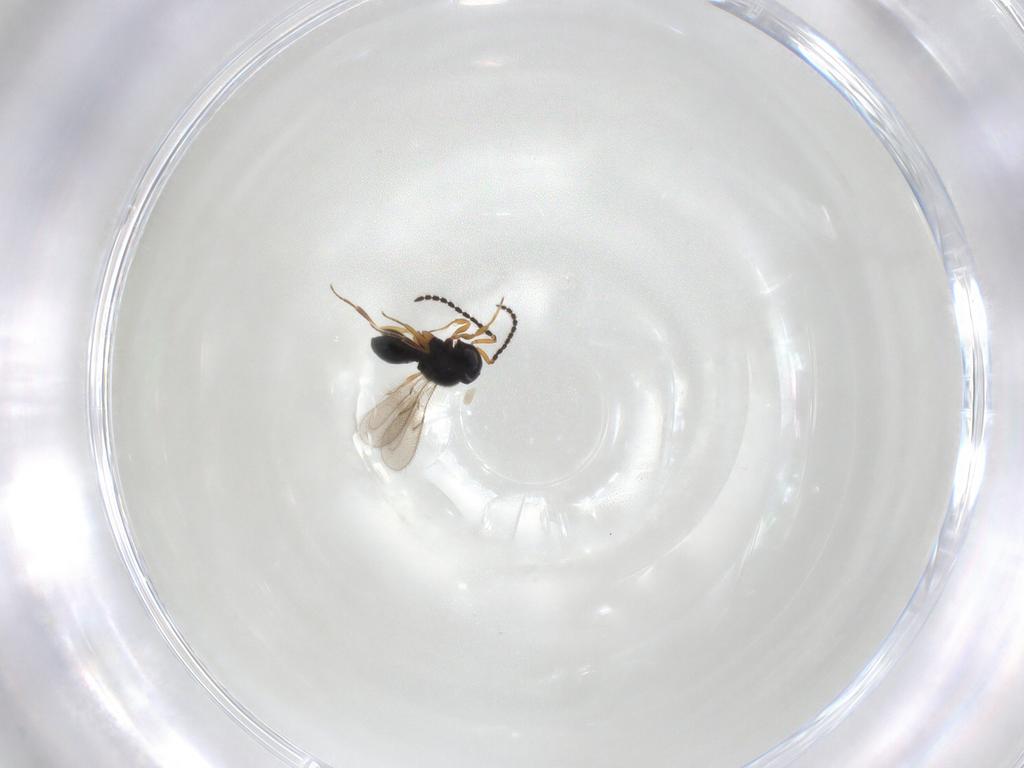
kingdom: Animalia
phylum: Arthropoda
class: Insecta
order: Hymenoptera
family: Scelionidae
